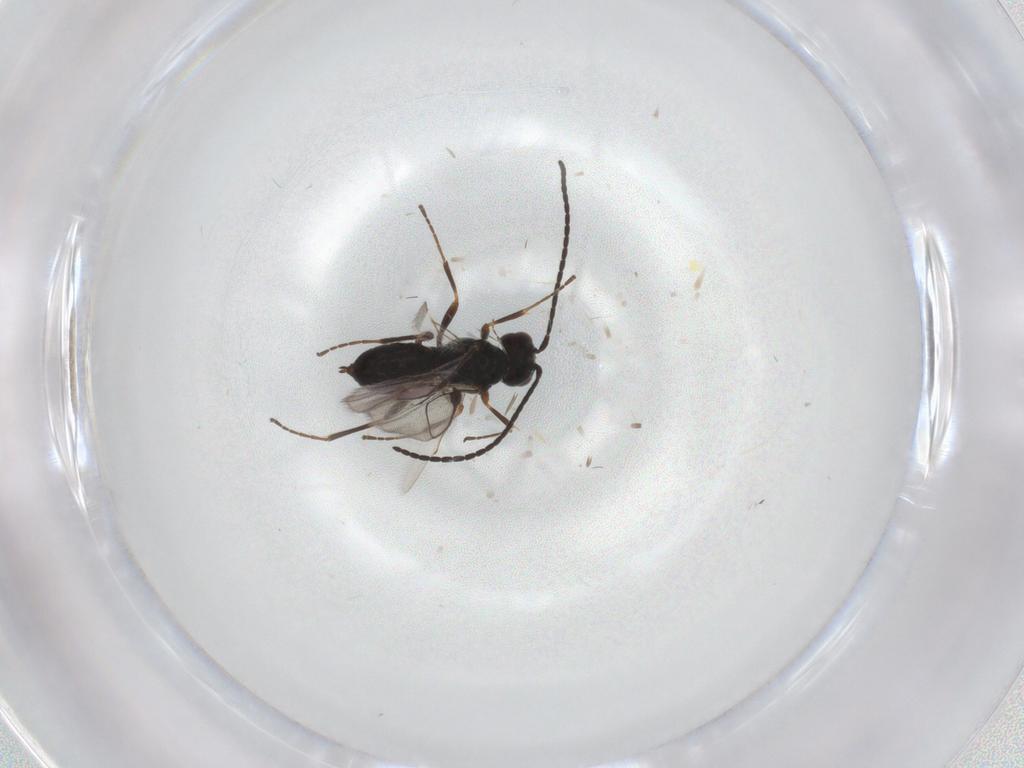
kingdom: Animalia
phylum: Arthropoda
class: Insecta
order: Hymenoptera
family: Braconidae
